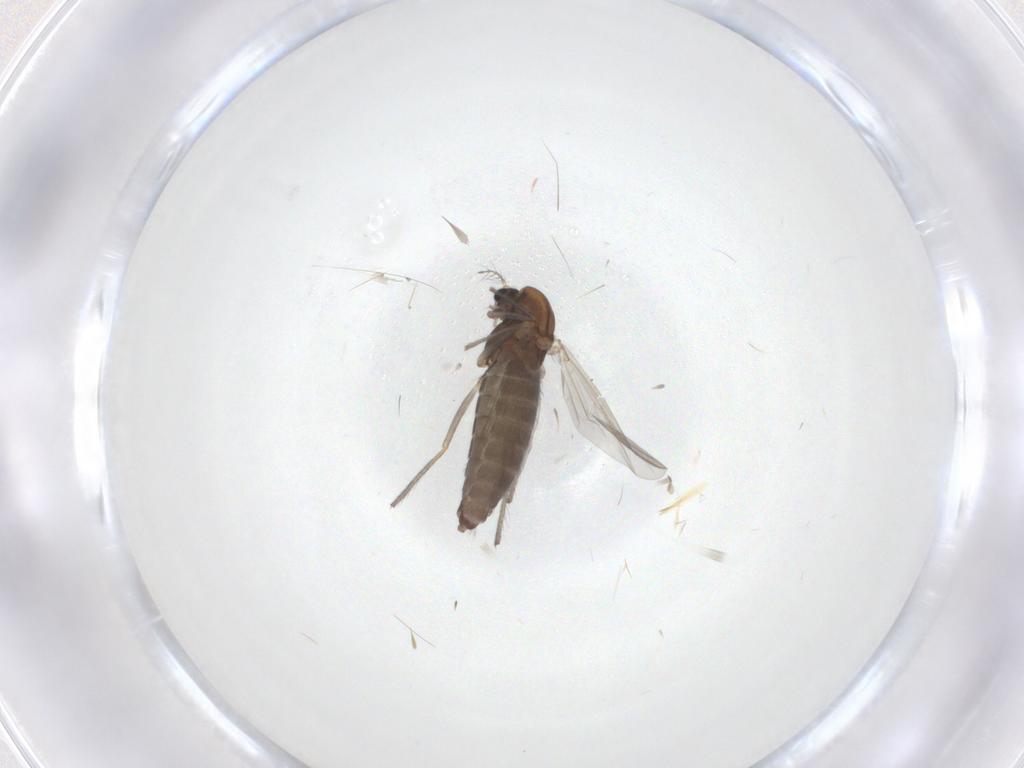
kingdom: Animalia
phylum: Arthropoda
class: Insecta
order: Diptera
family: Chironomidae
